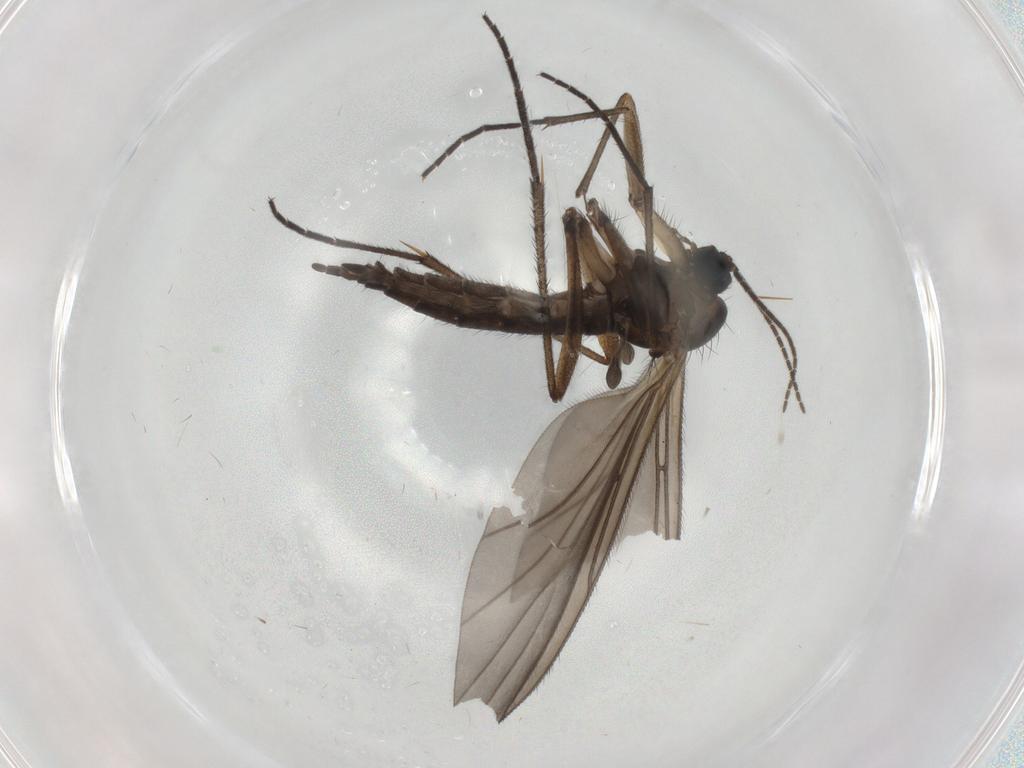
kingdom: Animalia
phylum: Arthropoda
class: Insecta
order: Diptera
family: Sciaridae
